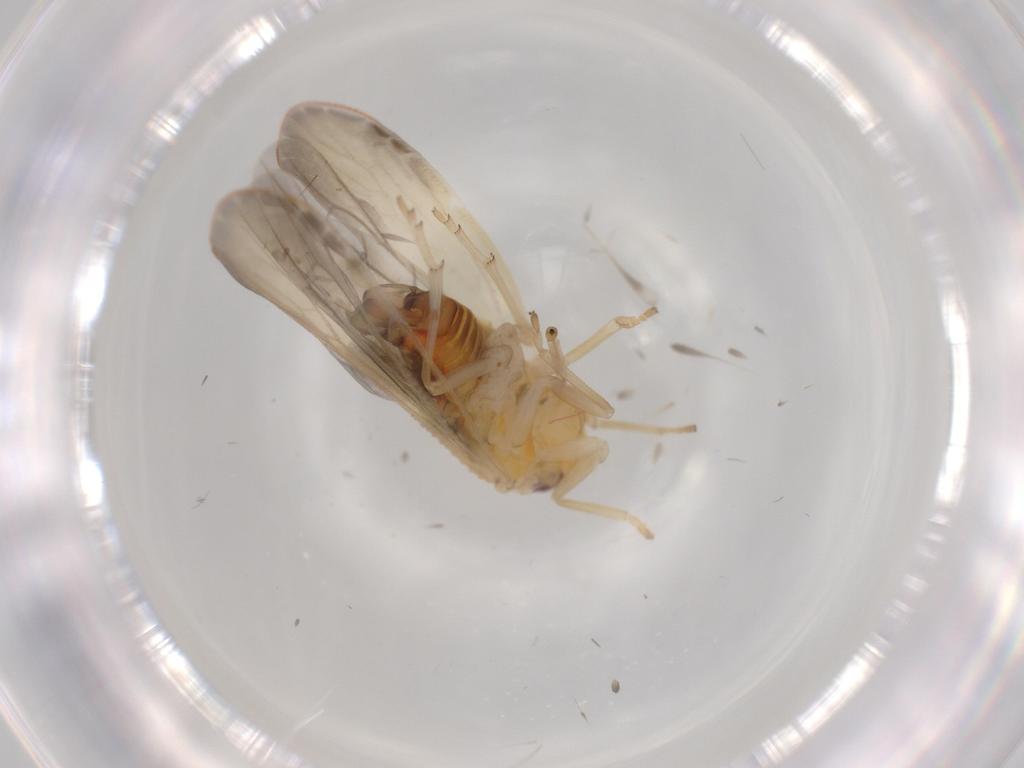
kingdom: Animalia
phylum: Arthropoda
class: Insecta
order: Hemiptera
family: Derbidae
